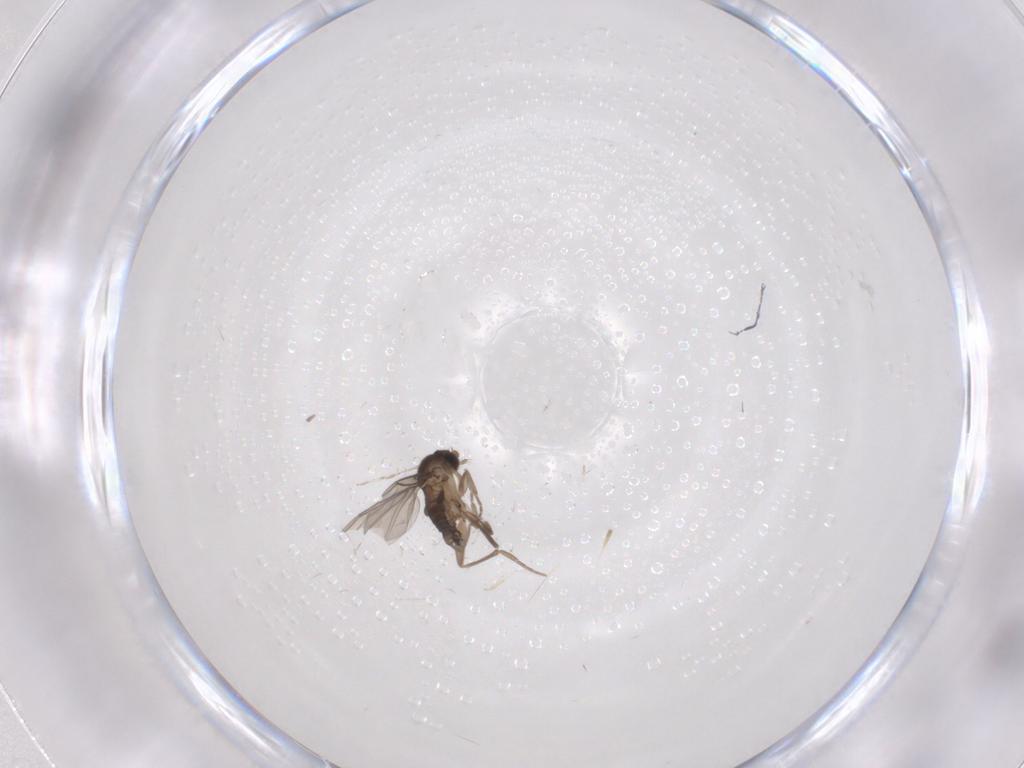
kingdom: Animalia
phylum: Arthropoda
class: Insecta
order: Diptera
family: Phoridae
